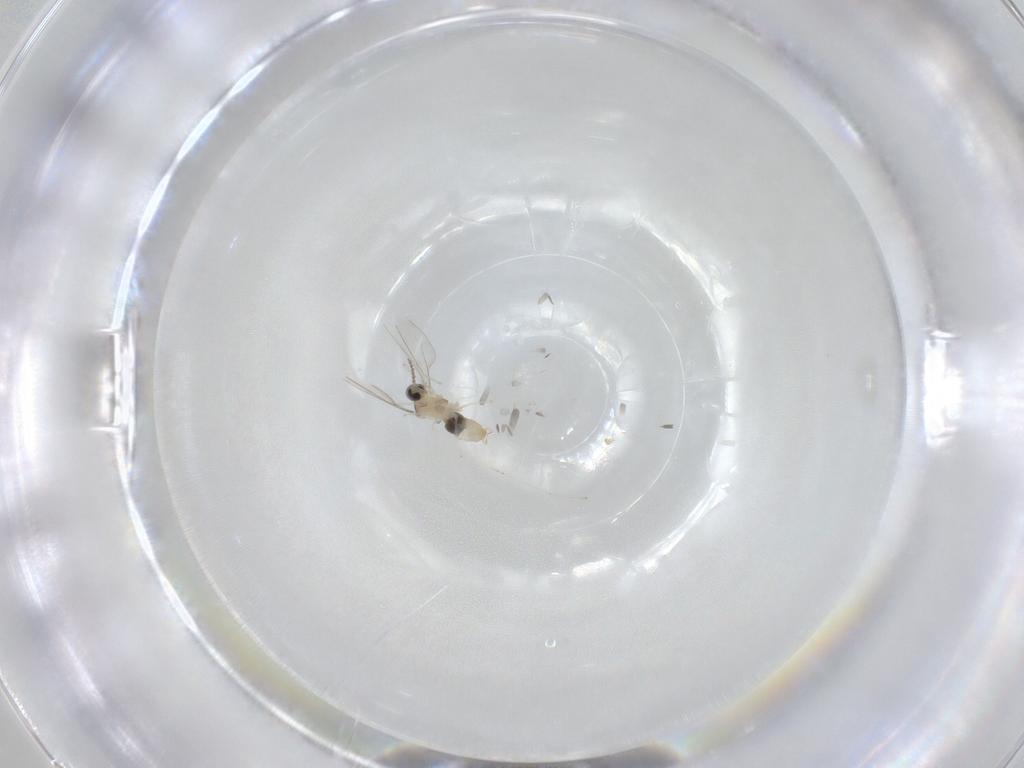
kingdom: Animalia
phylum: Arthropoda
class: Insecta
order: Diptera
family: Cecidomyiidae
